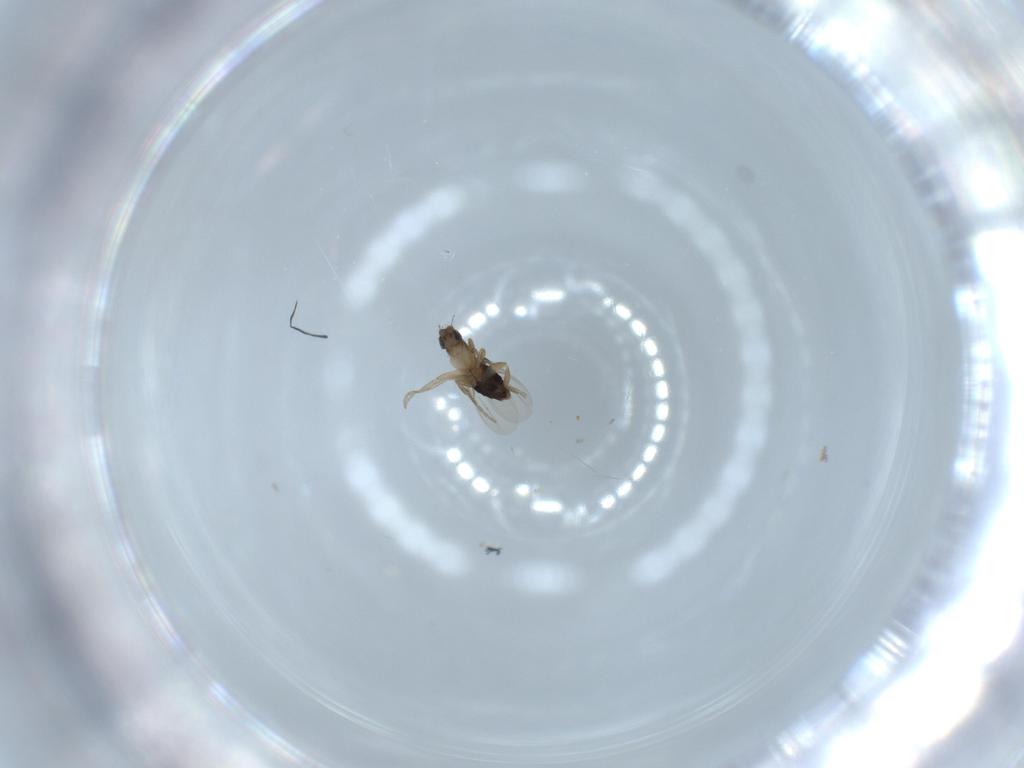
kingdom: Animalia
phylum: Arthropoda
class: Insecta
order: Diptera
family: Phoridae
